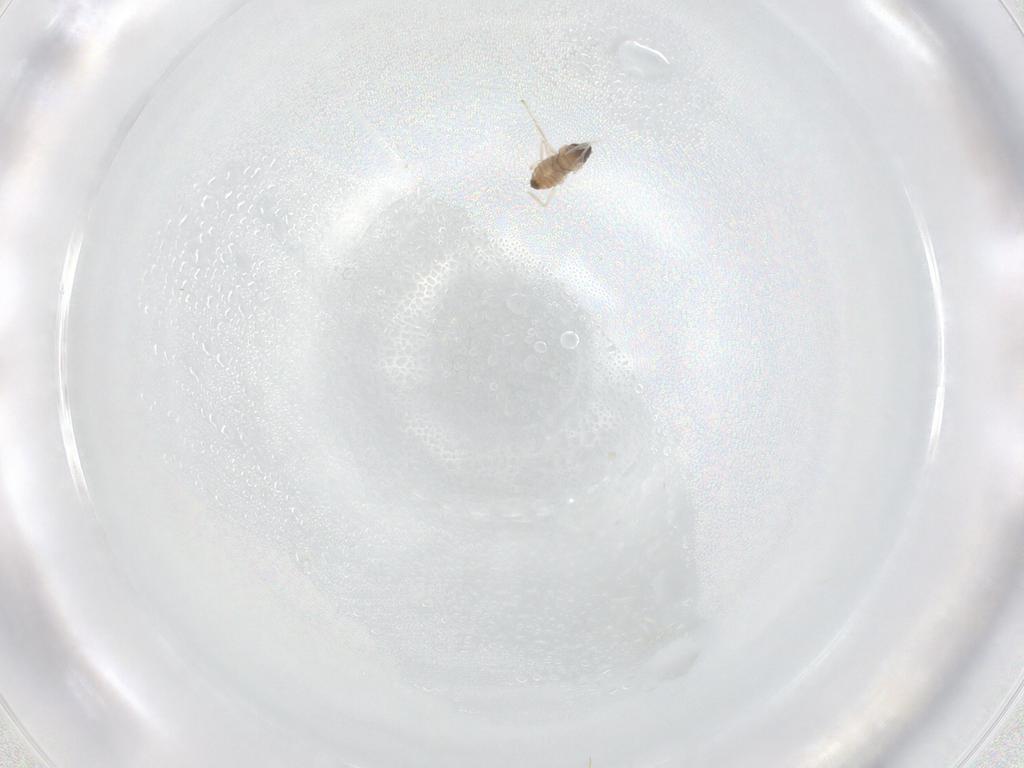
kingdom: Animalia
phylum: Arthropoda
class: Insecta
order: Diptera
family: Cecidomyiidae
